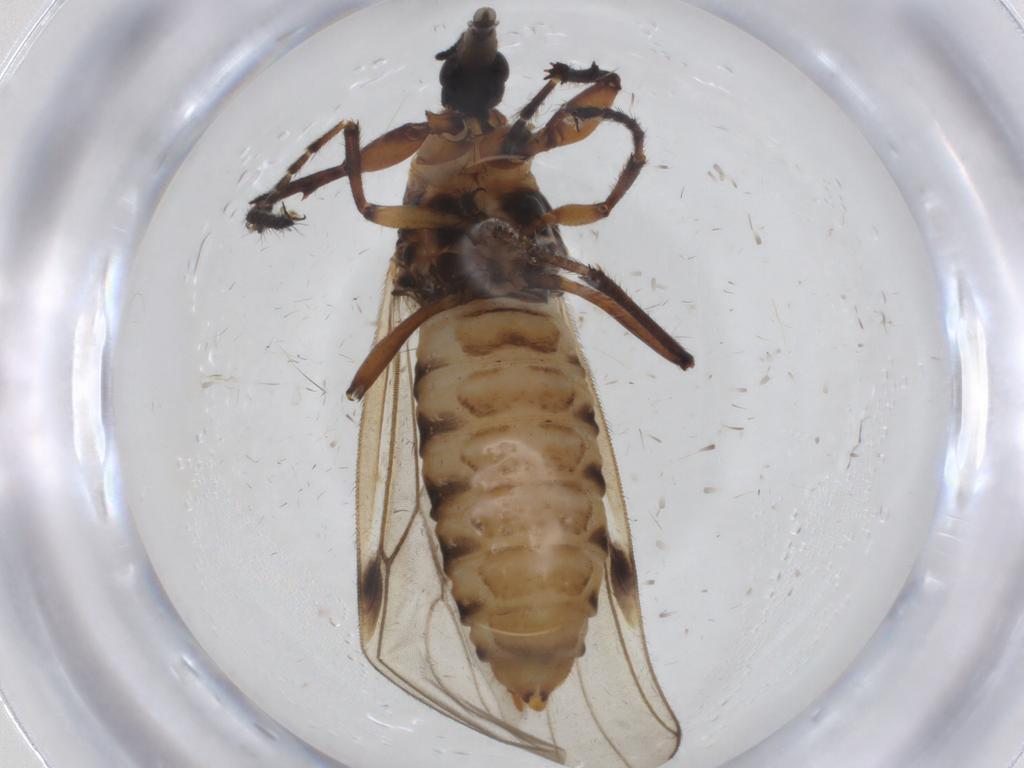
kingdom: Animalia
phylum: Arthropoda
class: Insecta
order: Diptera
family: Bibionidae
